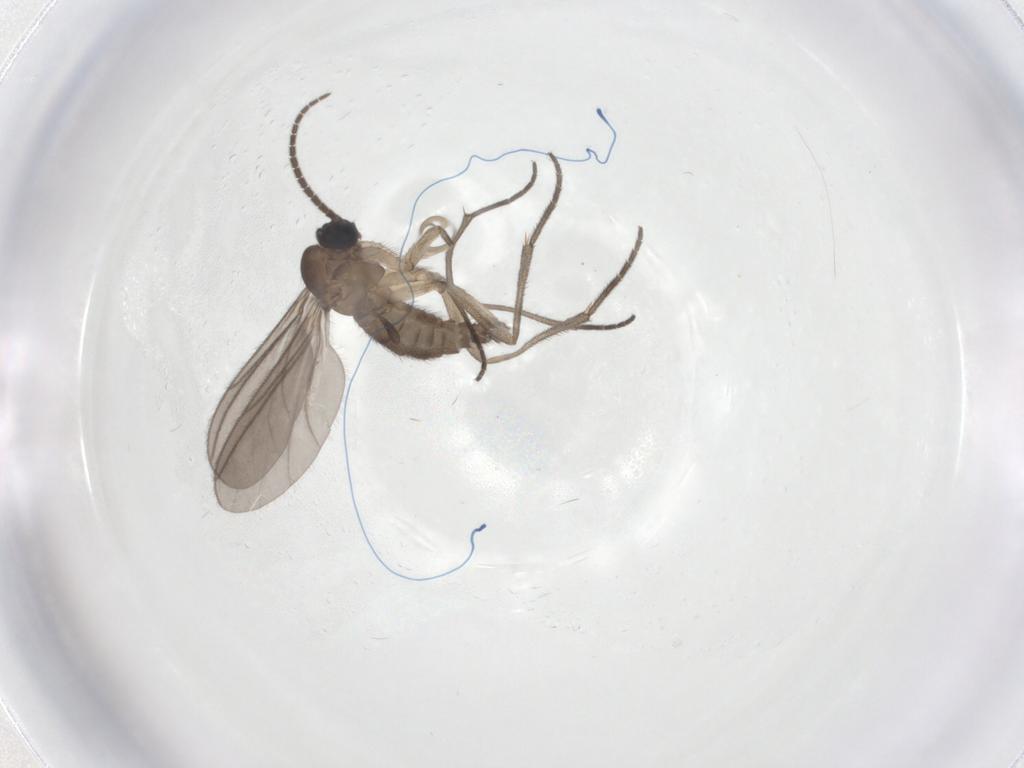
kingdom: Animalia
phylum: Arthropoda
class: Insecta
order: Diptera
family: Sciaridae
